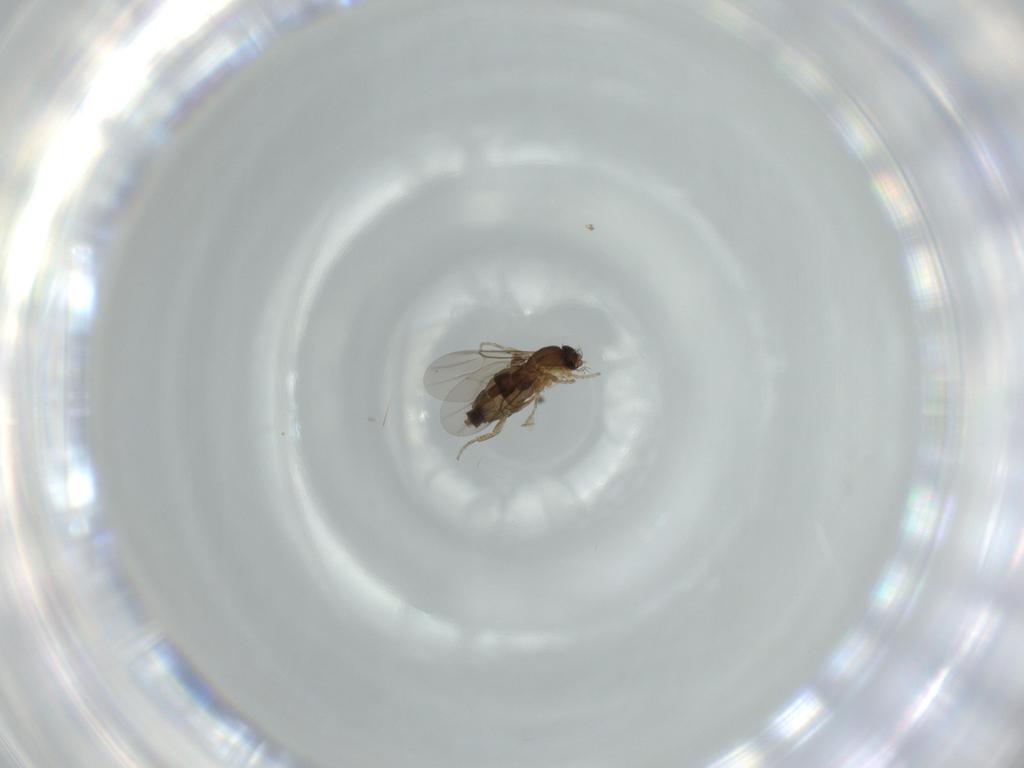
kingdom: Animalia
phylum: Arthropoda
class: Insecta
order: Diptera
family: Phoridae
